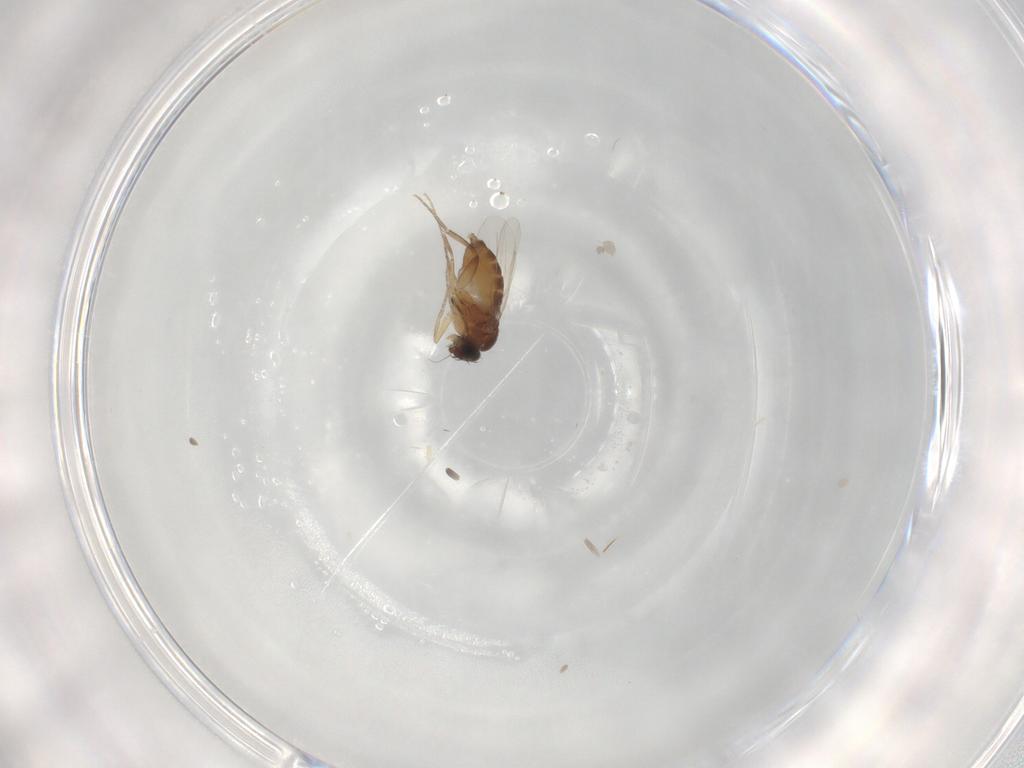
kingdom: Animalia
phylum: Arthropoda
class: Insecta
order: Diptera
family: Phoridae
